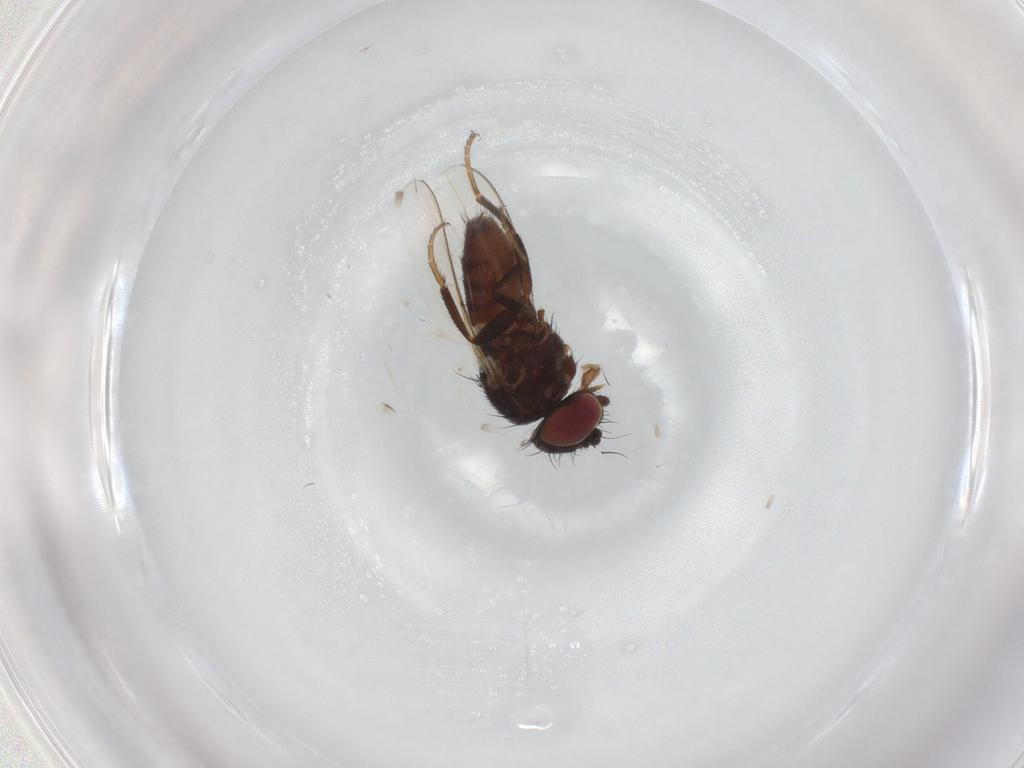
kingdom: Animalia
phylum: Arthropoda
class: Insecta
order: Diptera
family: Milichiidae
